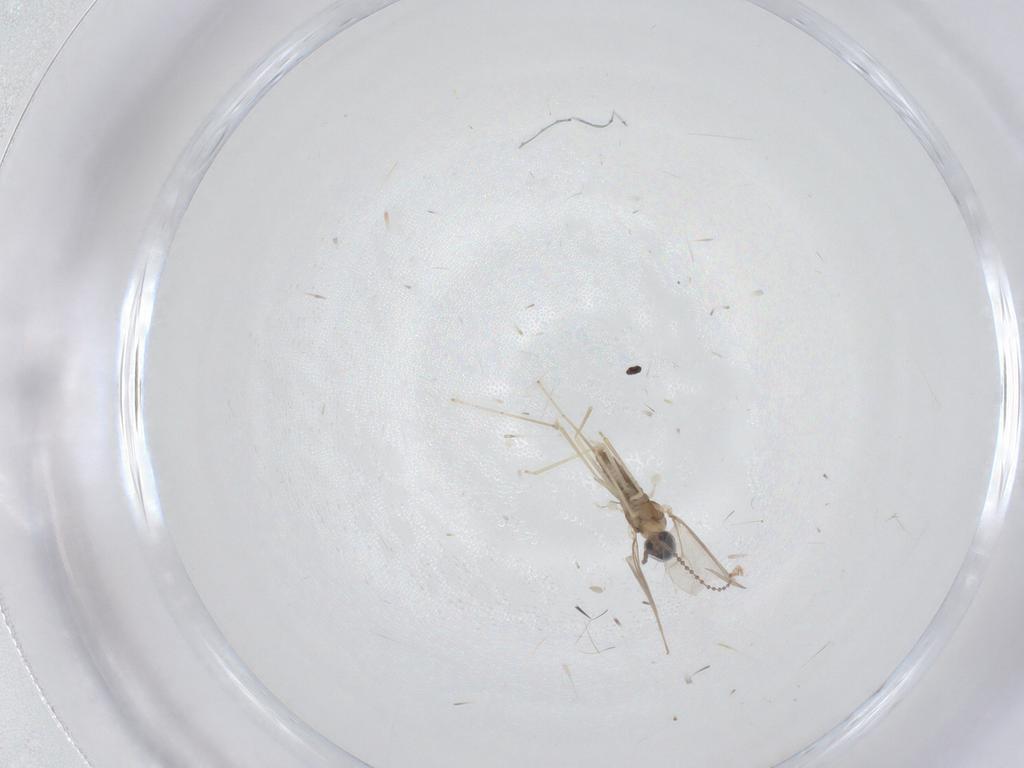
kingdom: Animalia
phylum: Arthropoda
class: Insecta
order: Diptera
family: Cecidomyiidae
